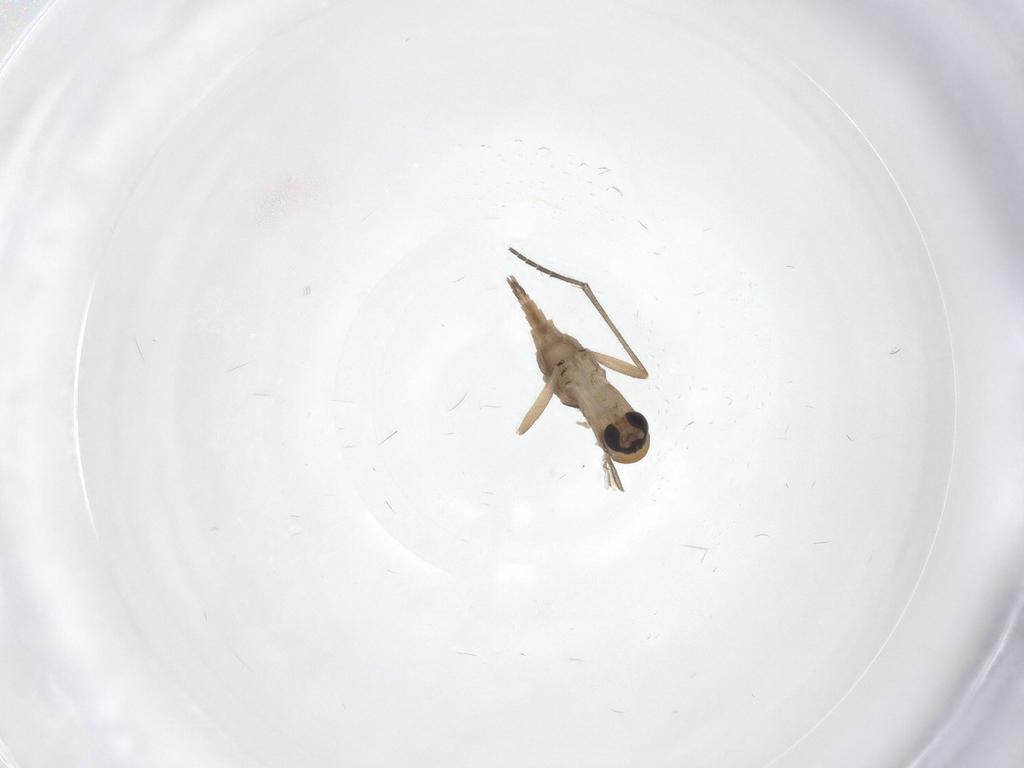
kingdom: Animalia
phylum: Arthropoda
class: Insecta
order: Diptera
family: Sciaridae
